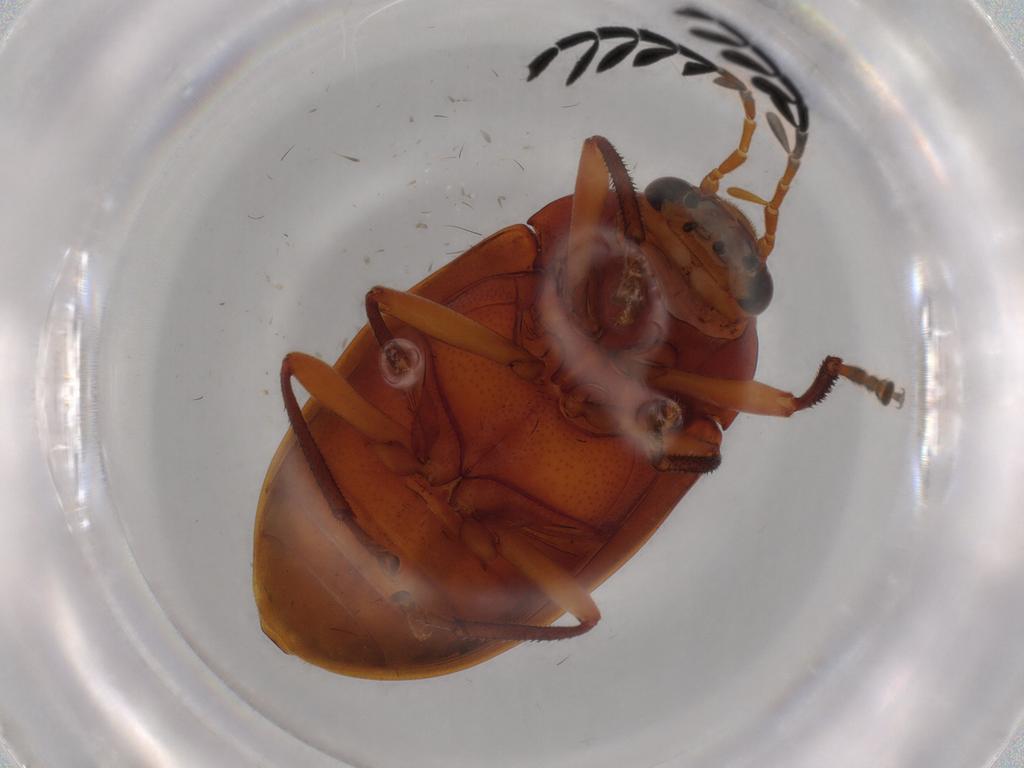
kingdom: Animalia
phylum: Arthropoda
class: Insecta
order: Coleoptera
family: Ptilodactylidae
